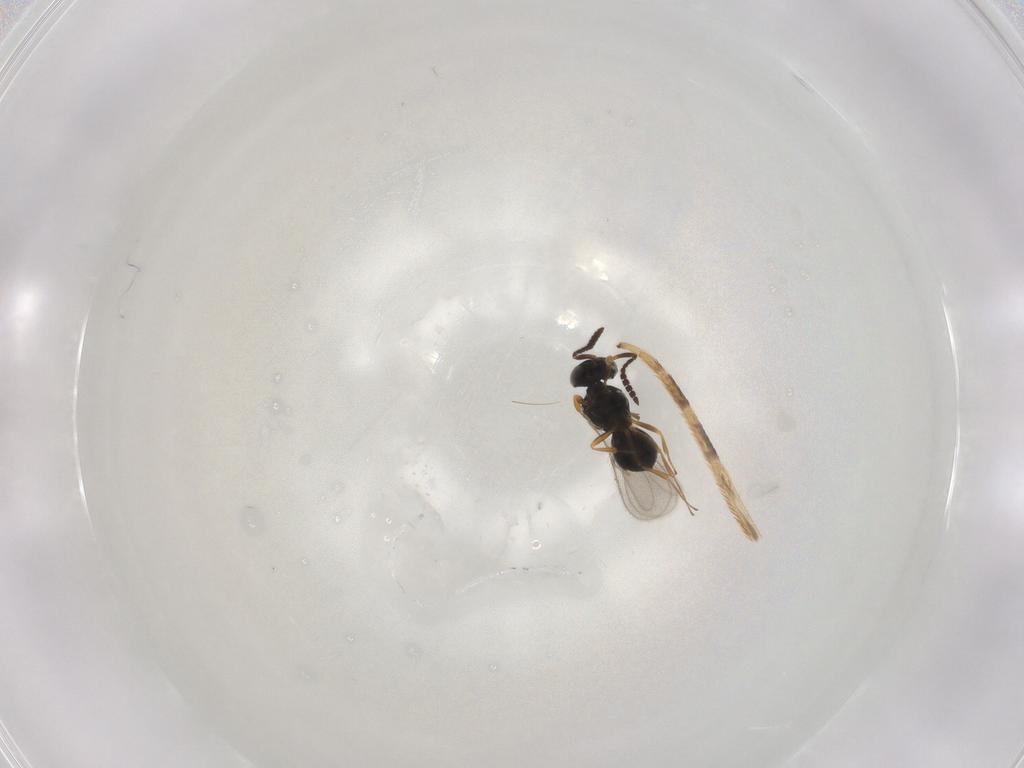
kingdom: Animalia
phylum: Arthropoda
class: Insecta
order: Hymenoptera
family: Scelionidae
